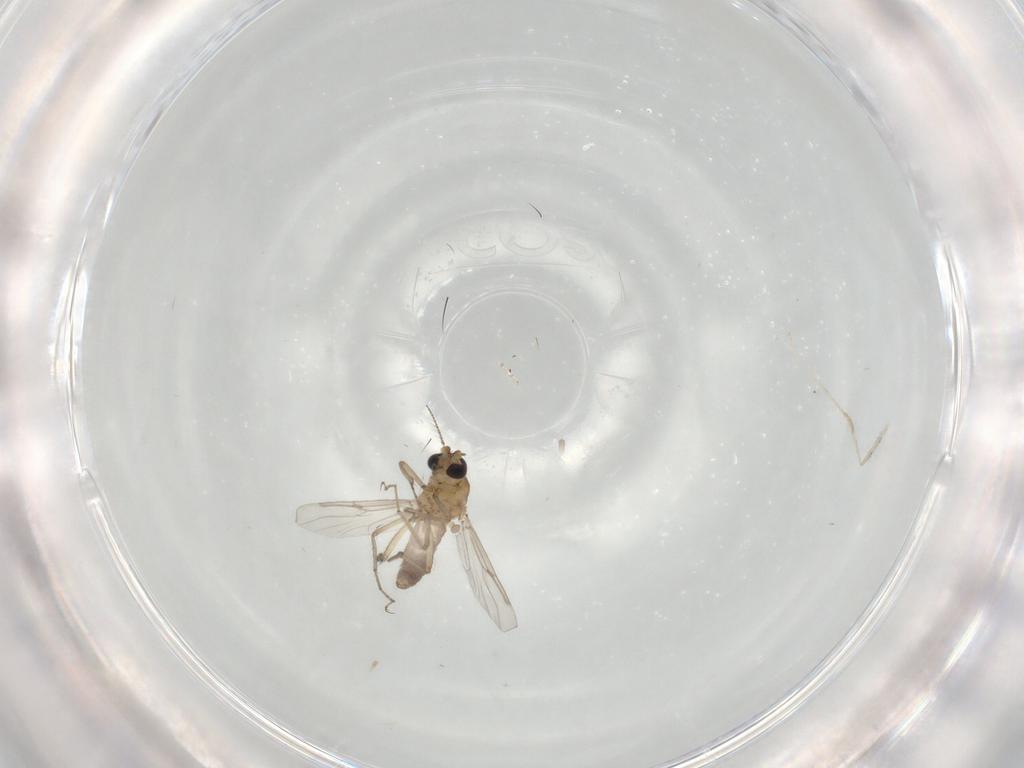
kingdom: Animalia
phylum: Arthropoda
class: Insecta
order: Diptera
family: Cecidomyiidae
